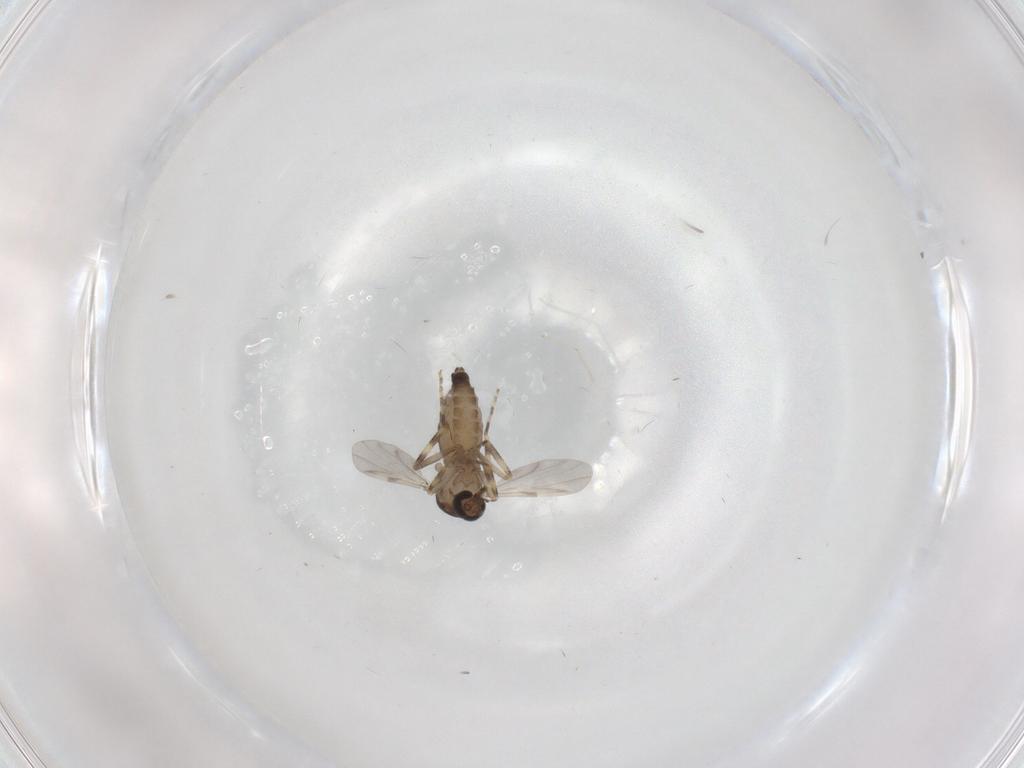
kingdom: Animalia
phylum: Arthropoda
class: Insecta
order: Diptera
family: Ceratopogonidae
